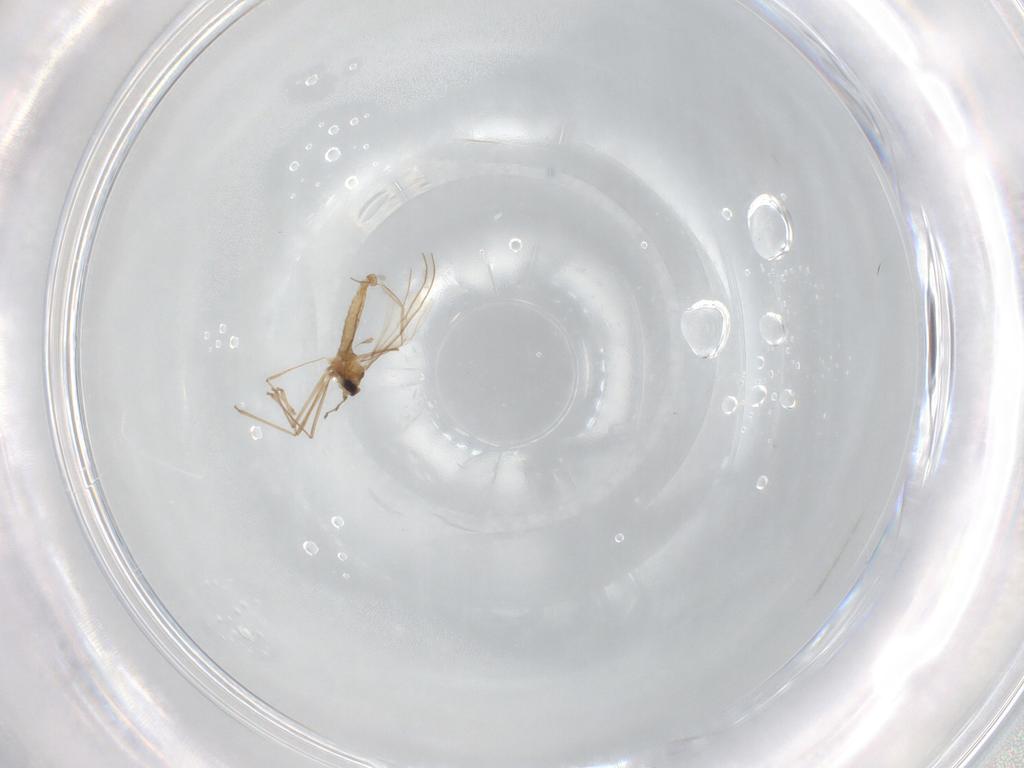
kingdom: Animalia
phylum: Arthropoda
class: Insecta
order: Diptera
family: Cecidomyiidae
